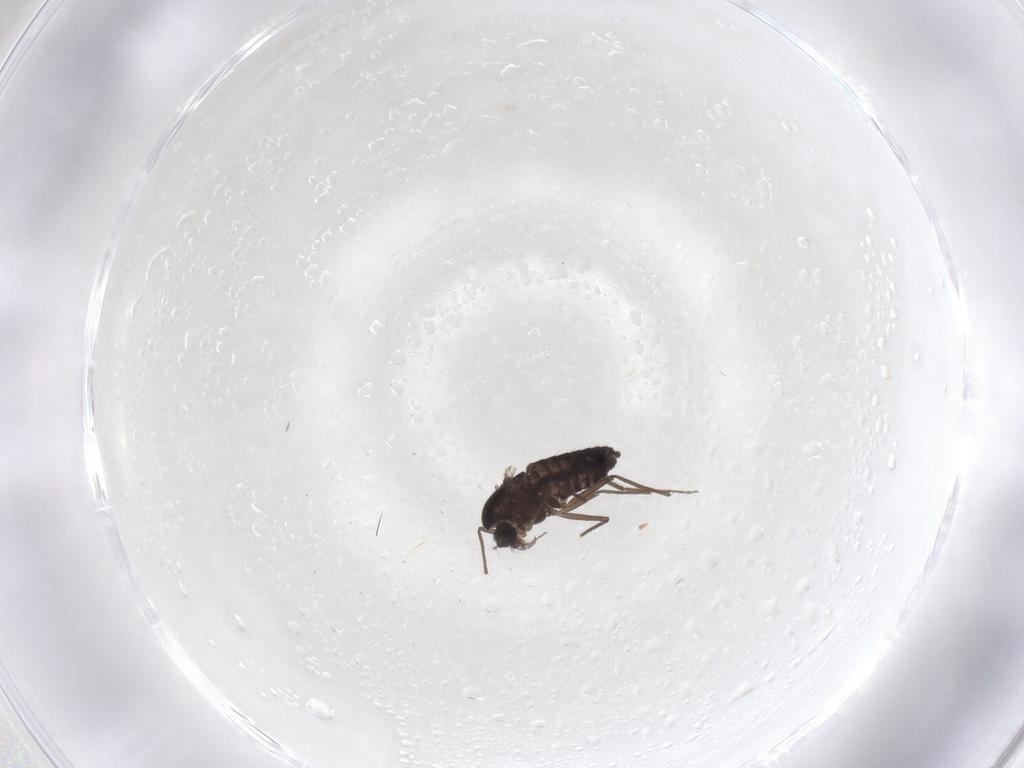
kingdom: Animalia
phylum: Arthropoda
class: Insecta
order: Diptera
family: Chironomidae
